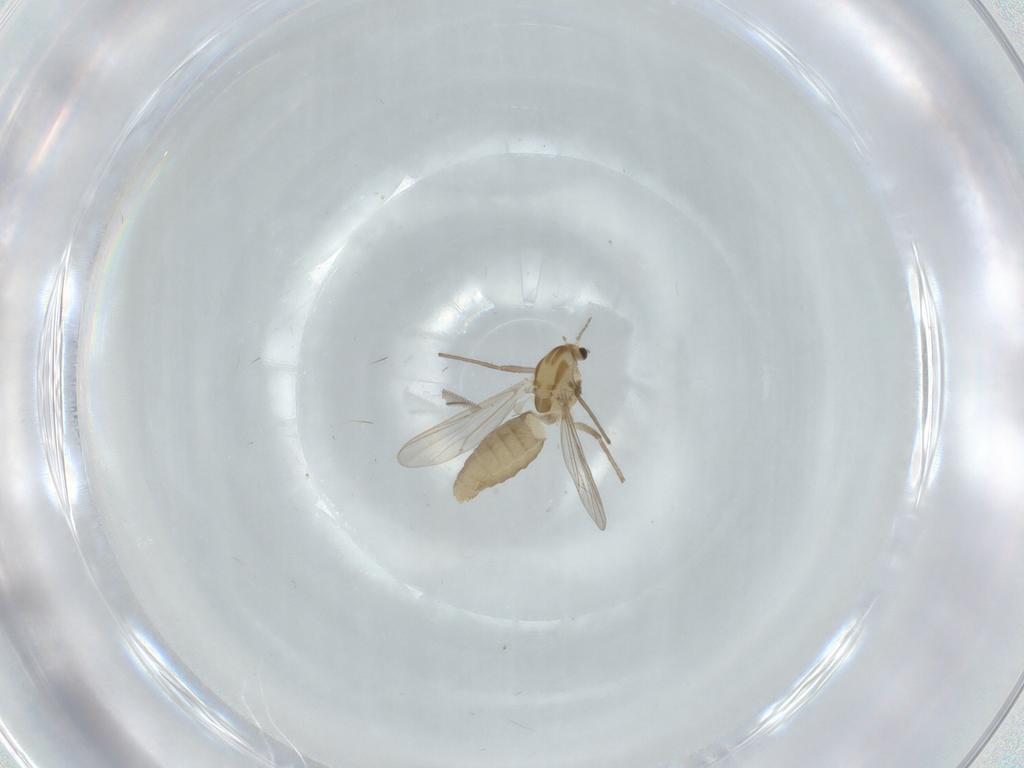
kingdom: Animalia
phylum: Arthropoda
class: Insecta
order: Diptera
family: Chironomidae
